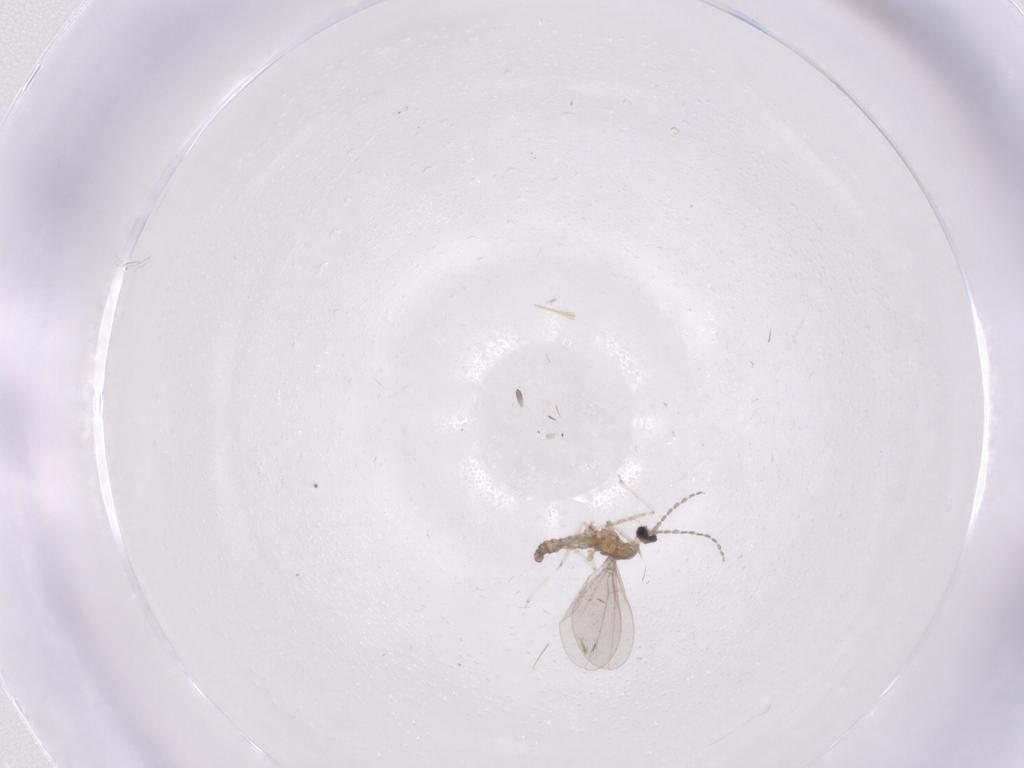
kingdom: Animalia
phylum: Arthropoda
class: Insecta
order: Diptera
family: Cecidomyiidae
